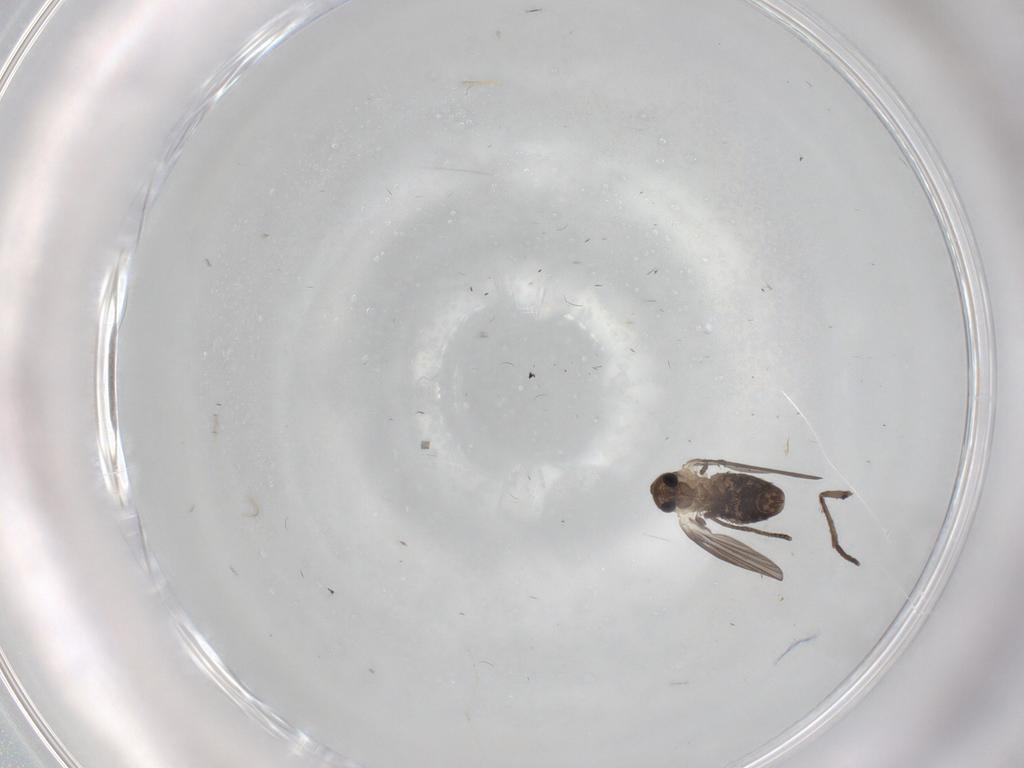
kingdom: Animalia
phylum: Arthropoda
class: Insecta
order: Diptera
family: Psychodidae
